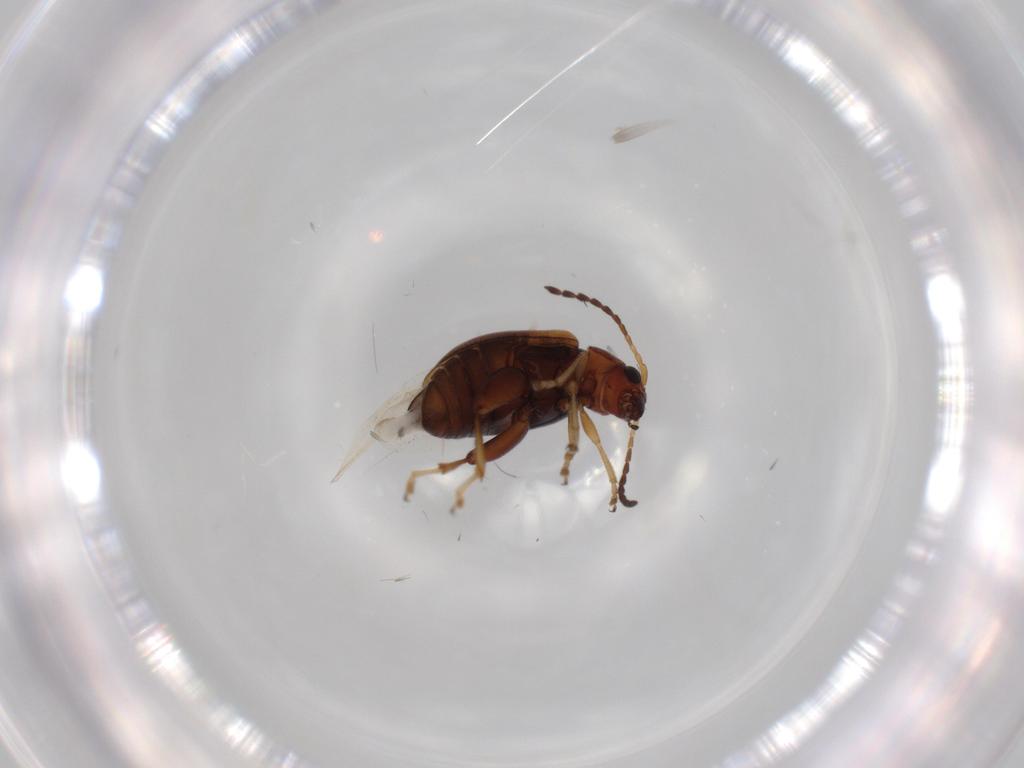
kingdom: Animalia
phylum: Arthropoda
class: Insecta
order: Coleoptera
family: Chrysomelidae
